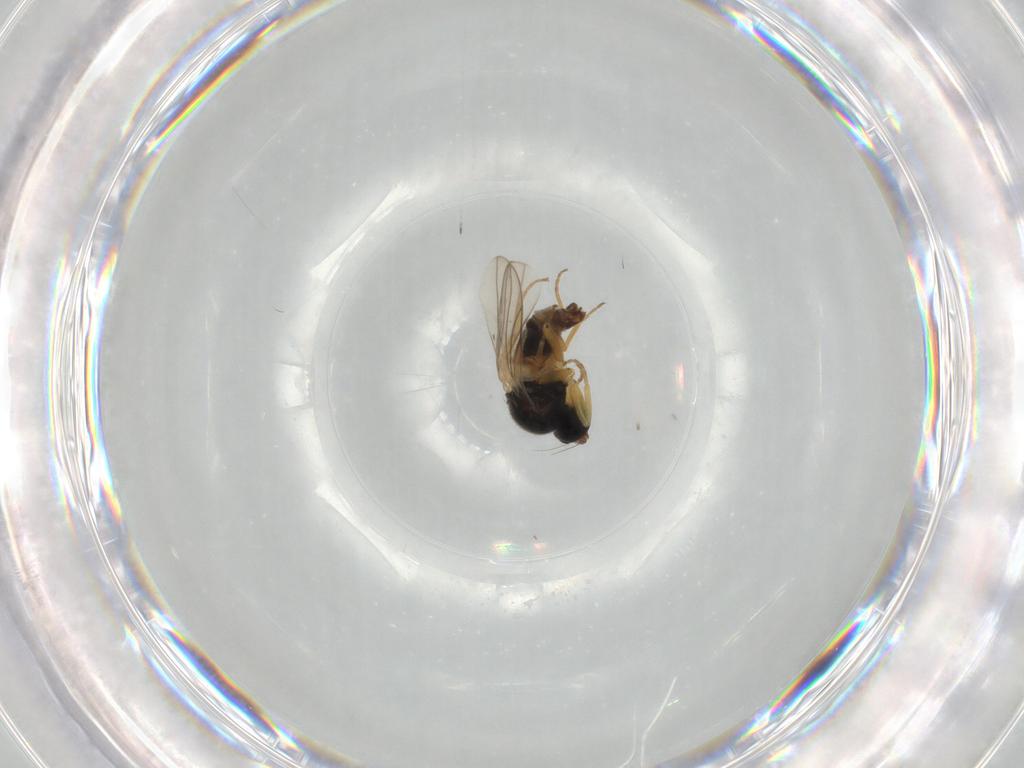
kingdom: Animalia
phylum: Arthropoda
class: Insecta
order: Diptera
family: Hybotidae
